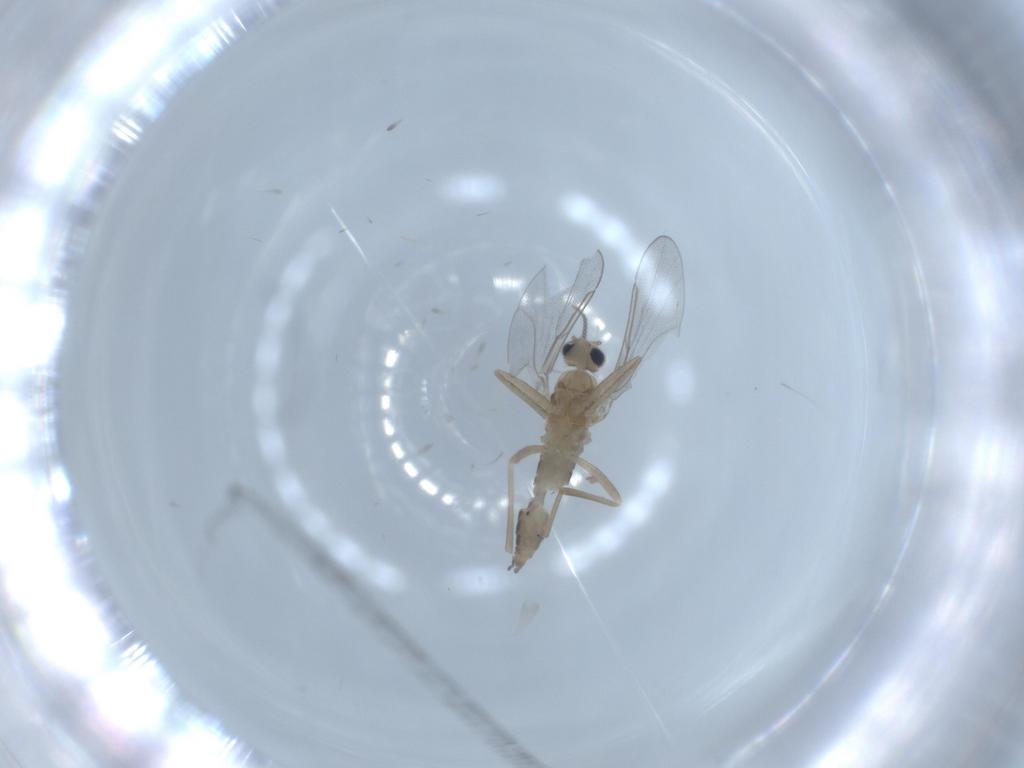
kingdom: Animalia
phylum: Arthropoda
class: Insecta
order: Diptera
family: Cecidomyiidae
